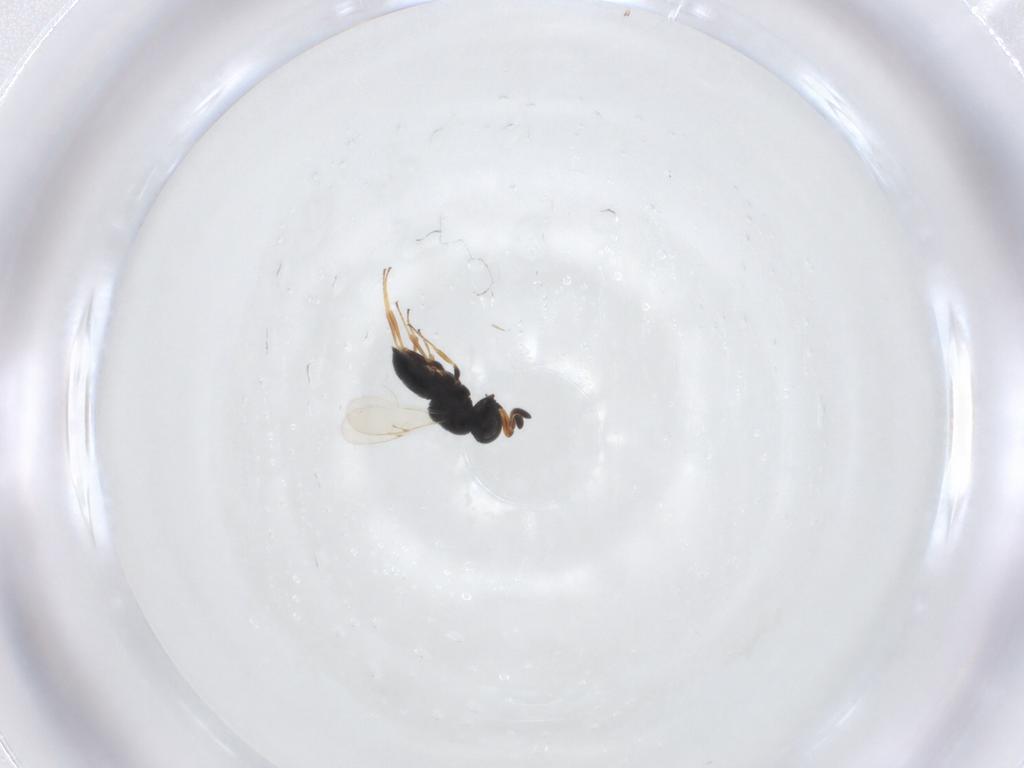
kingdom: Animalia
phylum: Arthropoda
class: Insecta
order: Hymenoptera
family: Scelionidae
